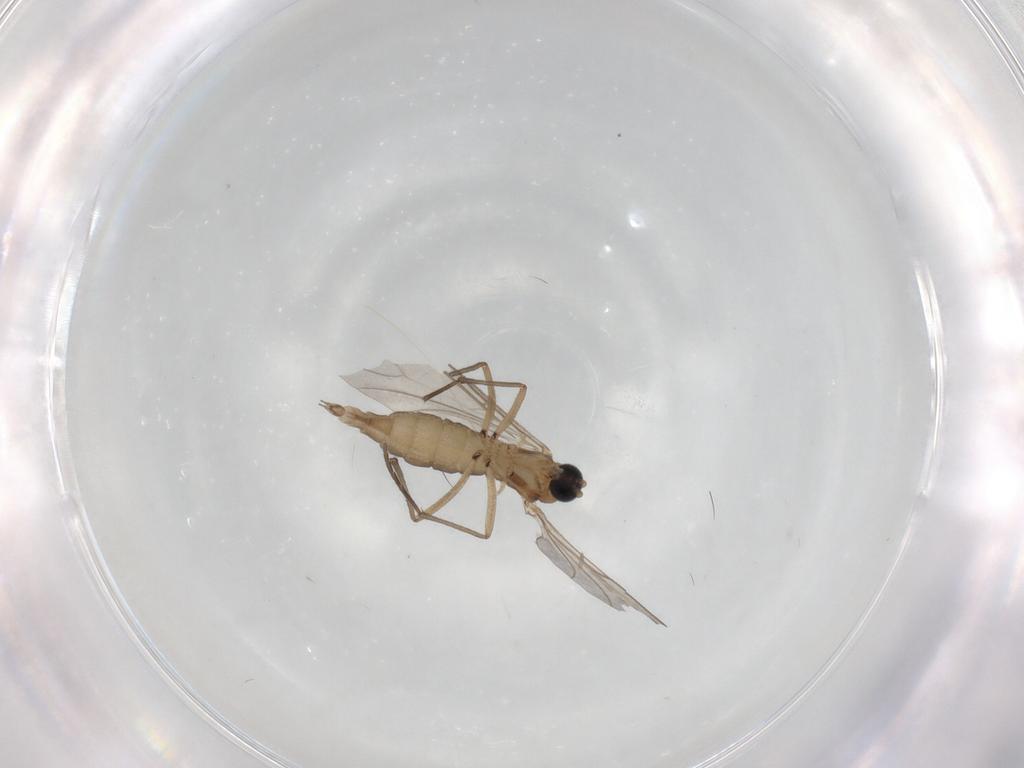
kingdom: Animalia
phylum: Arthropoda
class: Insecta
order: Diptera
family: Sciaridae
